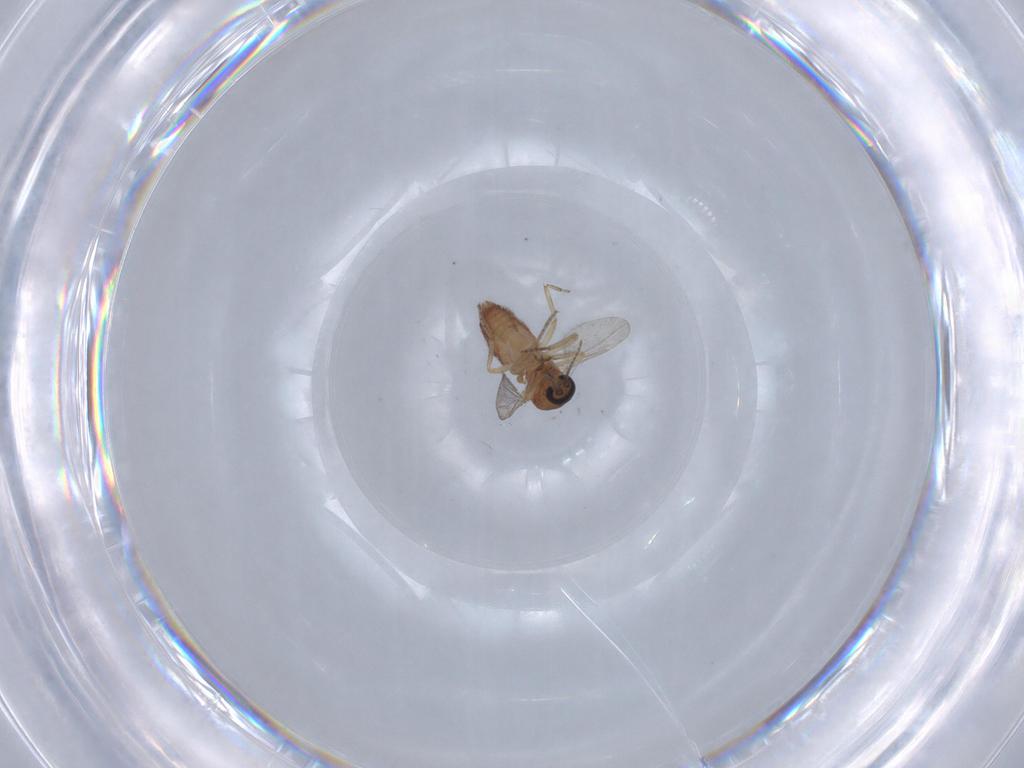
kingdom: Animalia
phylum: Arthropoda
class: Insecta
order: Diptera
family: Ceratopogonidae
